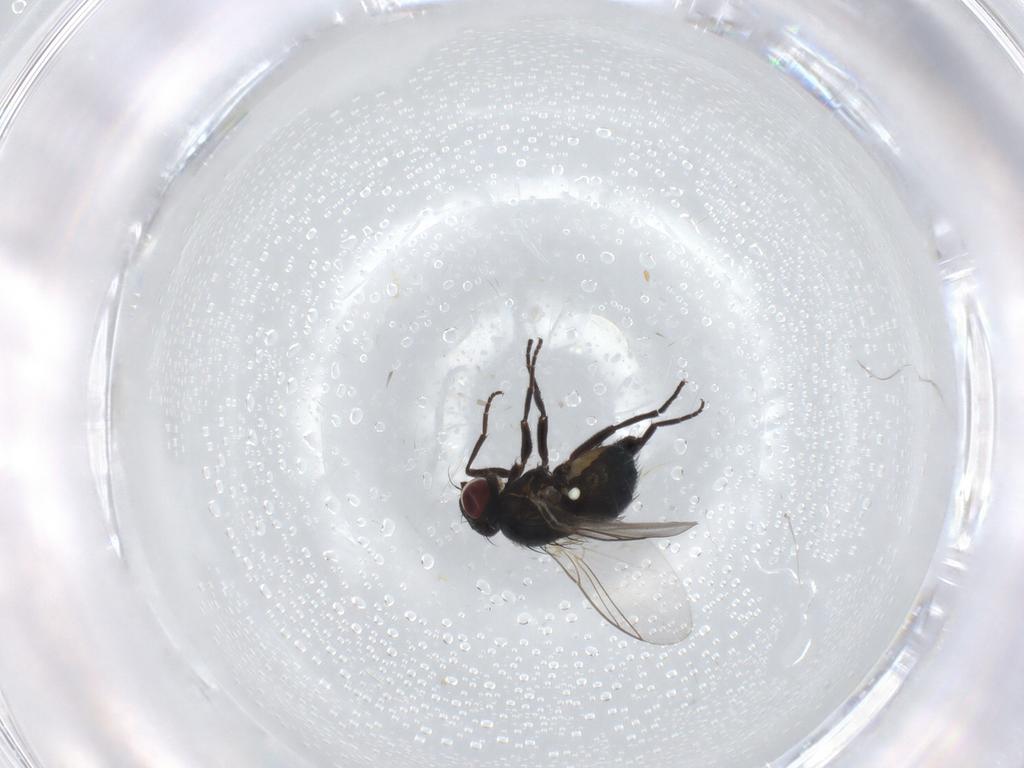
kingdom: Animalia
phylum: Arthropoda
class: Insecta
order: Diptera
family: Agromyzidae
